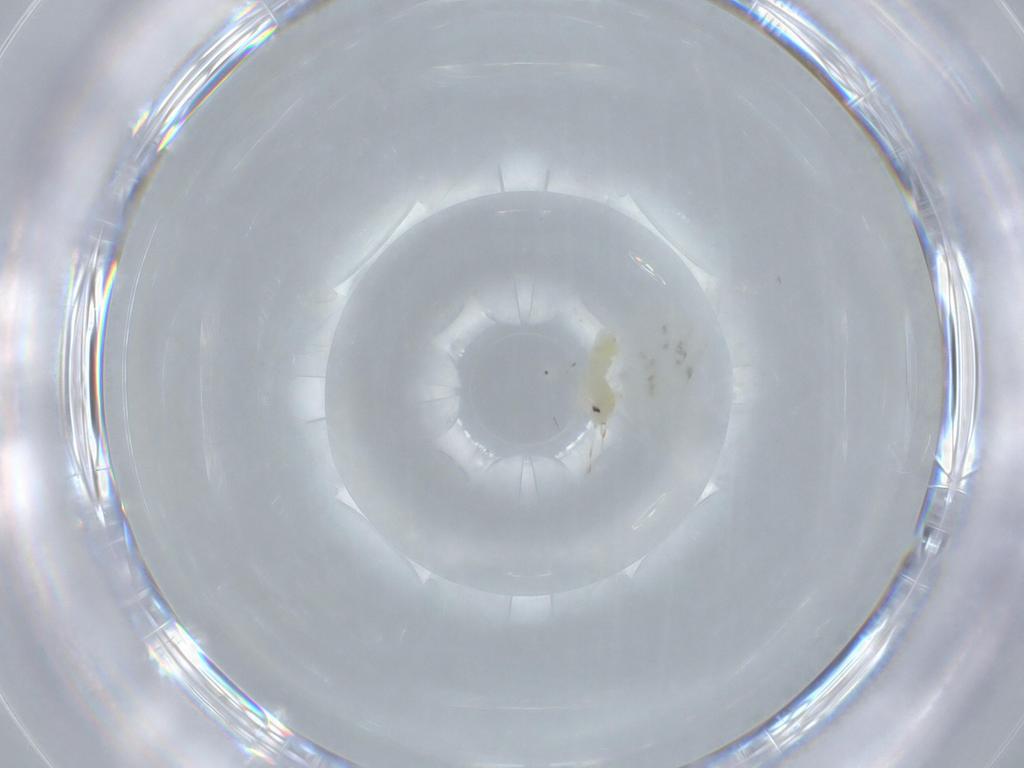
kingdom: Animalia
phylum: Arthropoda
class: Insecta
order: Hemiptera
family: Aleyrodidae
